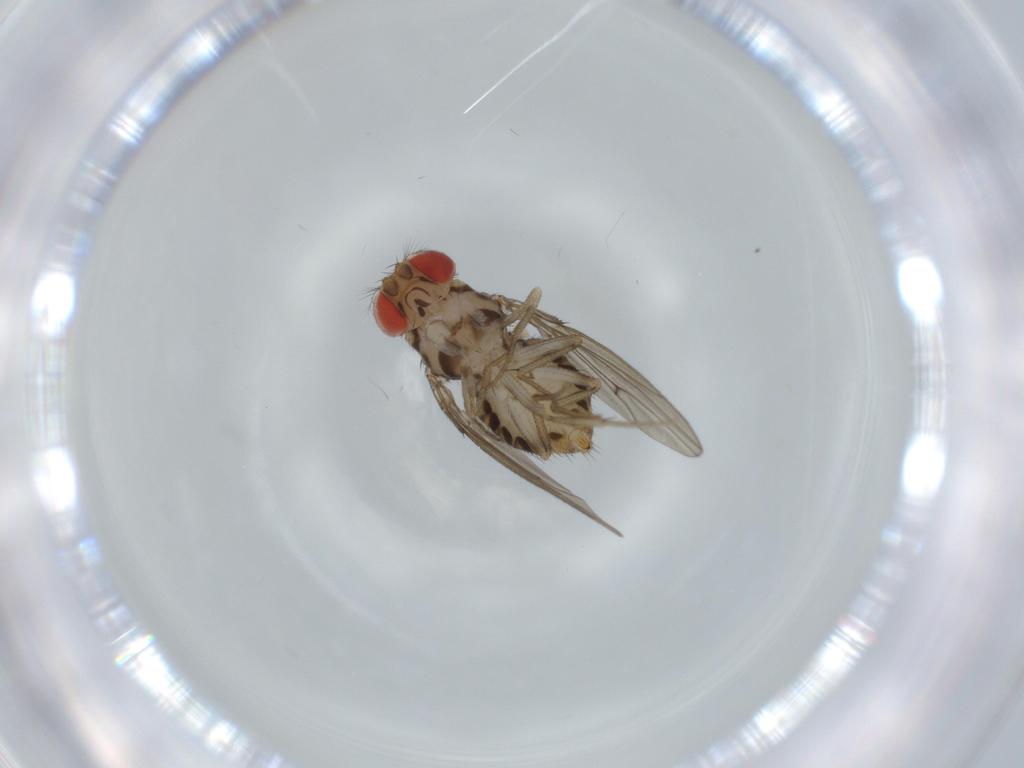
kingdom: Animalia
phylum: Arthropoda
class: Insecta
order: Diptera
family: Drosophilidae
